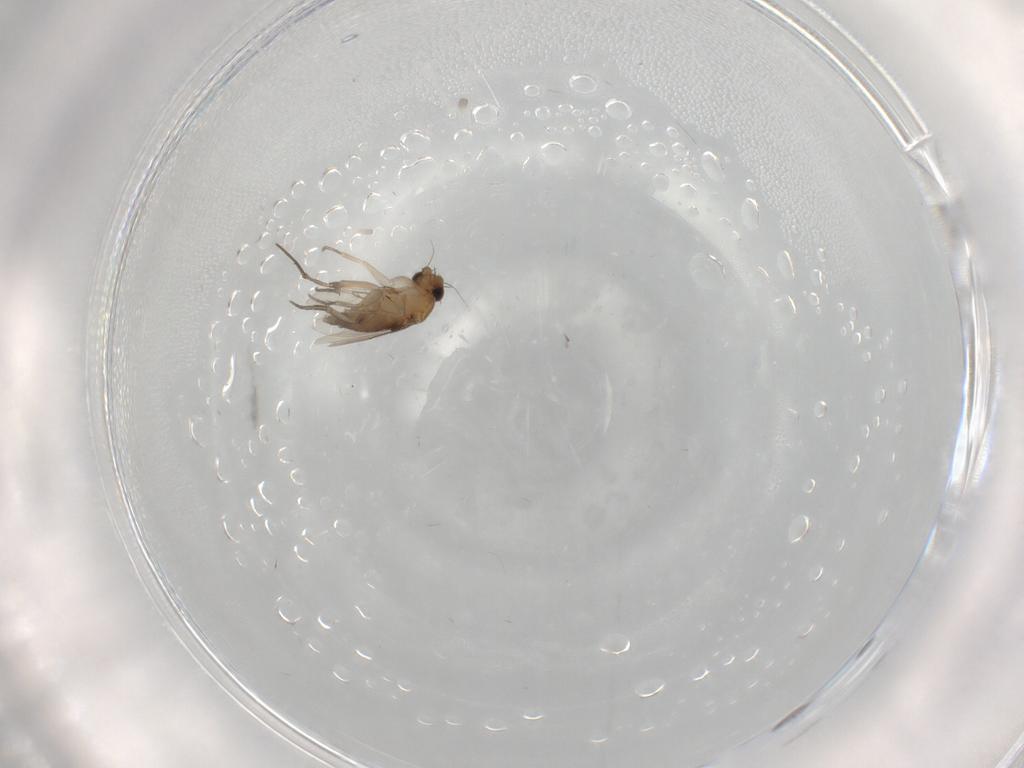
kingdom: Animalia
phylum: Arthropoda
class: Insecta
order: Diptera
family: Phoridae
